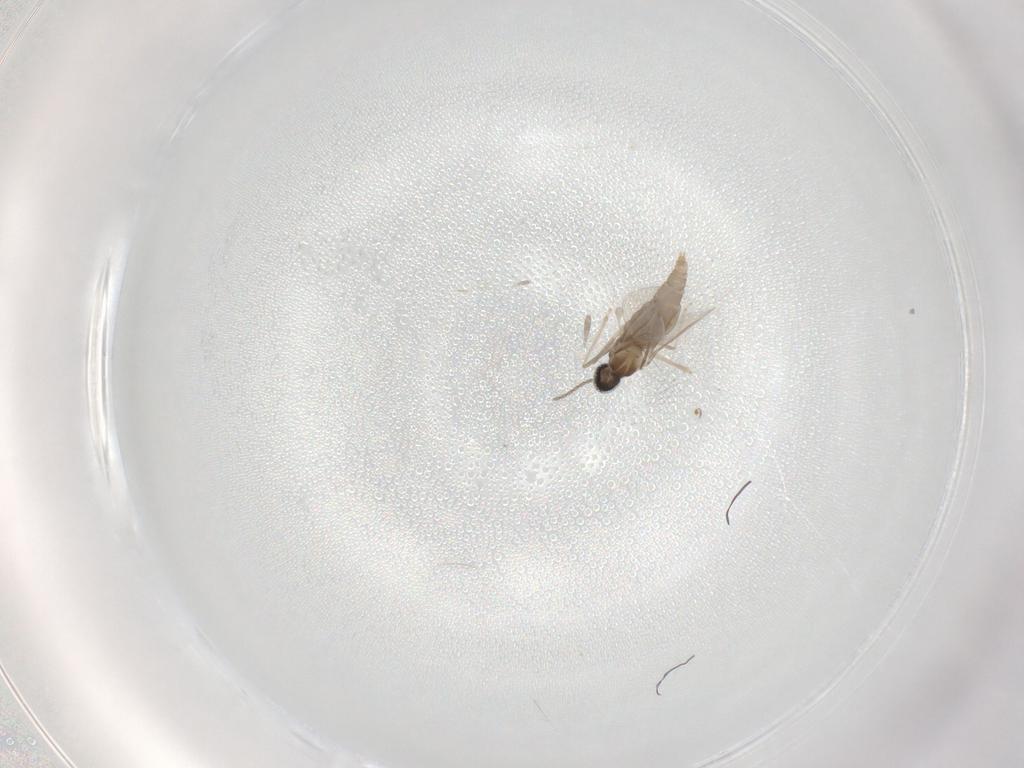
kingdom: Animalia
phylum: Arthropoda
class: Insecta
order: Diptera
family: Cecidomyiidae
